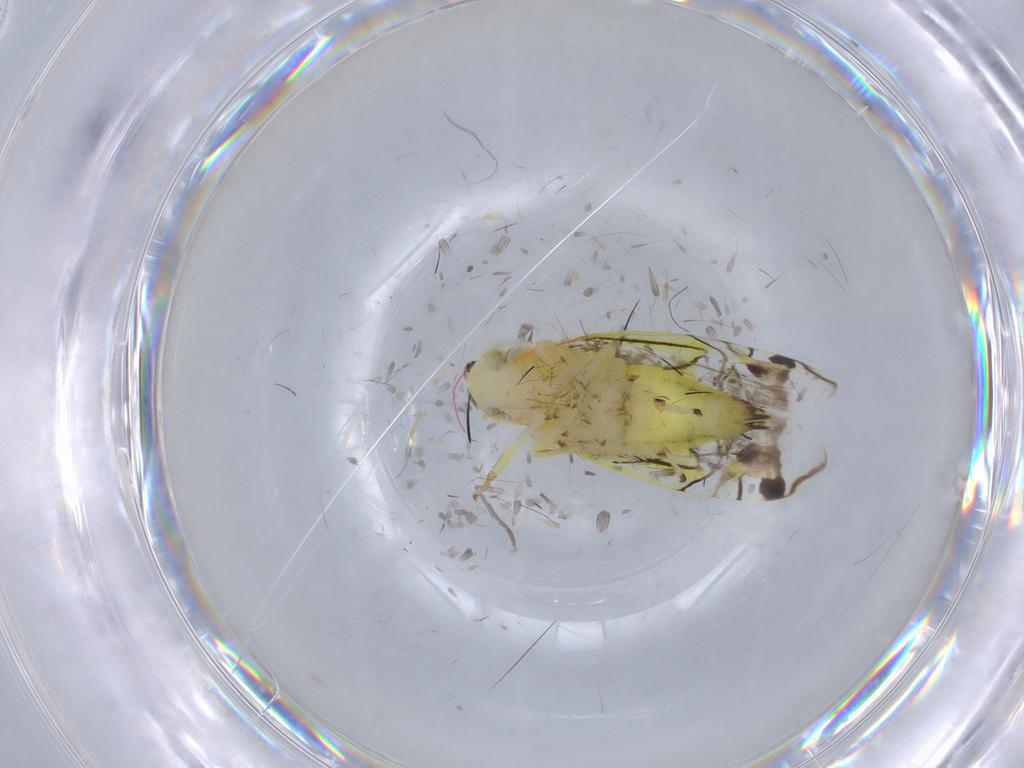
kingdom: Animalia
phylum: Arthropoda
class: Insecta
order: Hemiptera
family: Cicadellidae
